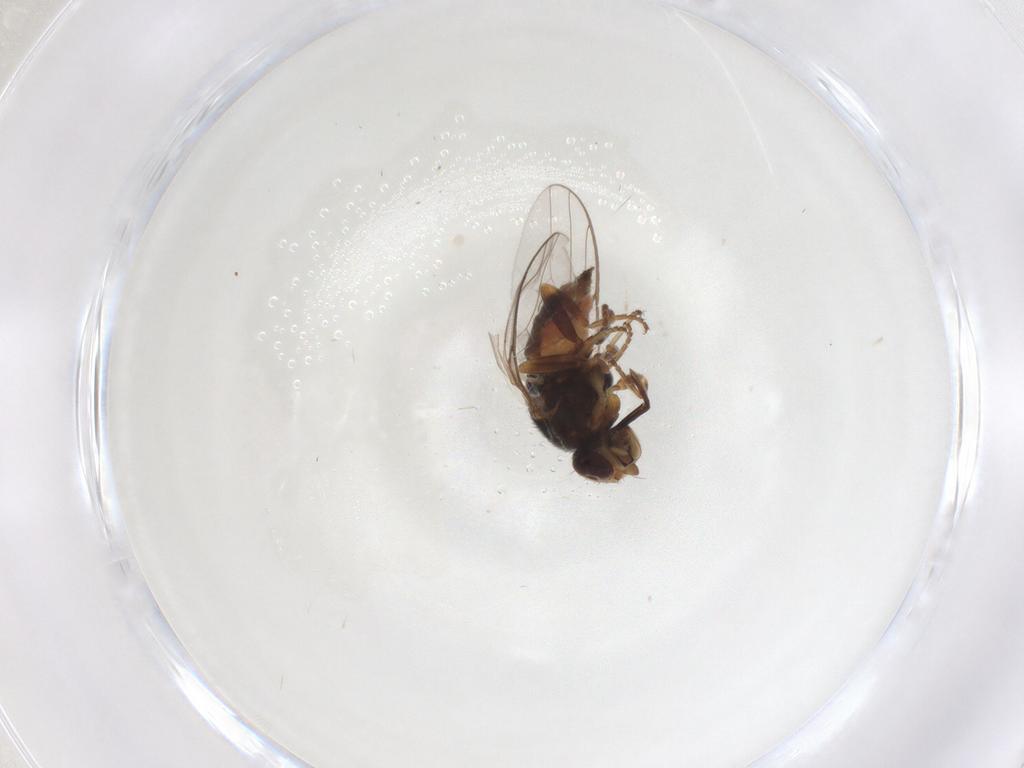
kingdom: Animalia
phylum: Arthropoda
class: Insecta
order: Diptera
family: Chloropidae
